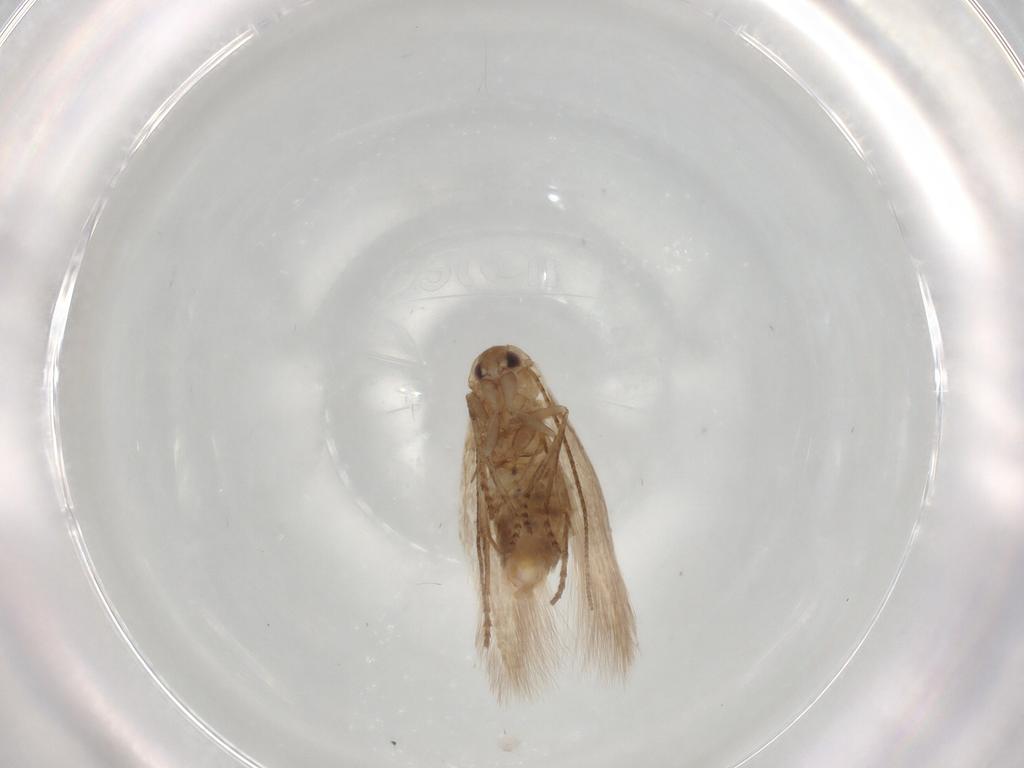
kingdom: Animalia
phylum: Arthropoda
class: Insecta
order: Lepidoptera
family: Bucculatricidae
